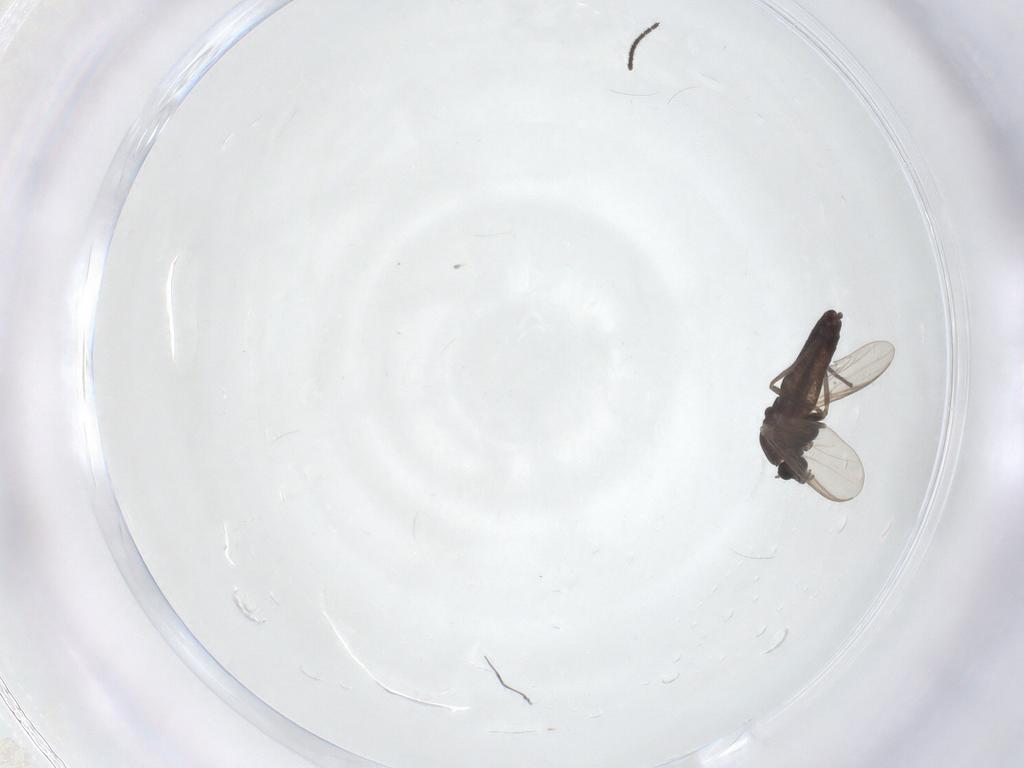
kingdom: Animalia
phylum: Arthropoda
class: Insecta
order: Diptera
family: Chironomidae
